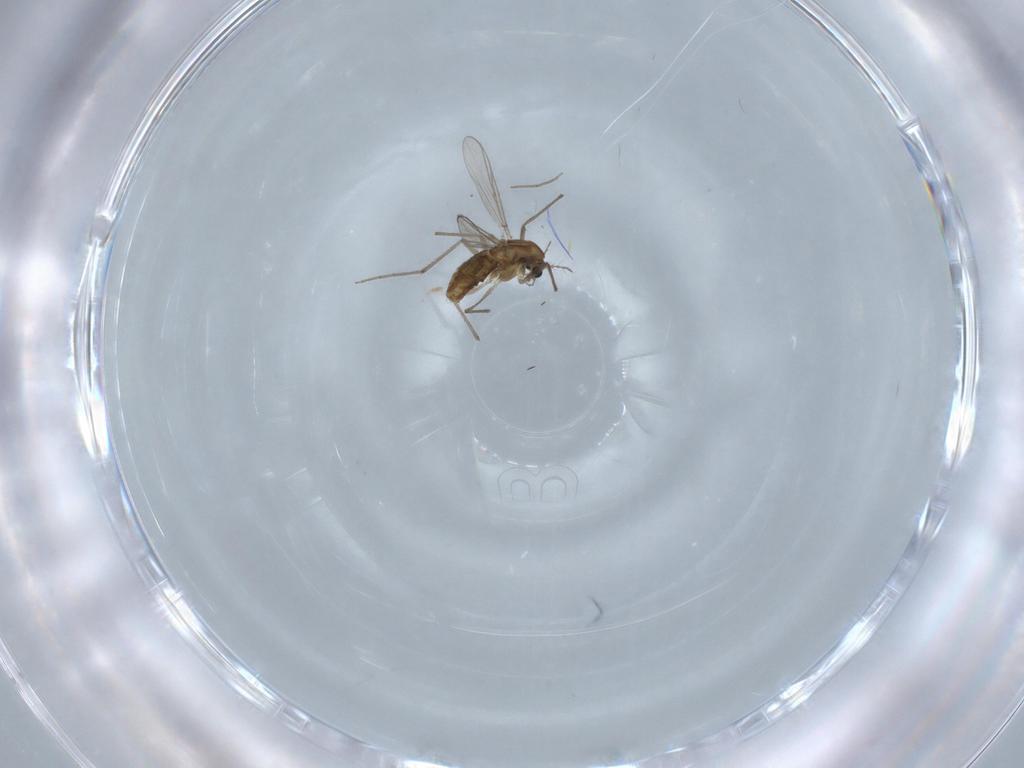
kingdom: Animalia
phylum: Arthropoda
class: Insecta
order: Diptera
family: Chironomidae
